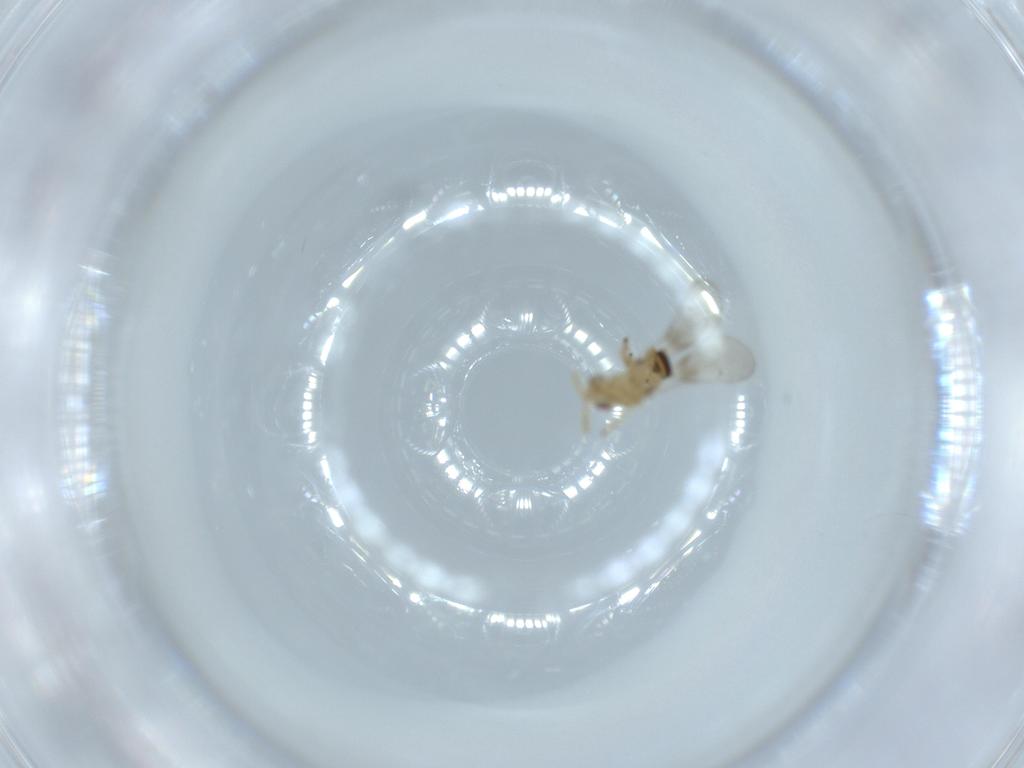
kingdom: Animalia
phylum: Arthropoda
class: Insecta
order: Hymenoptera
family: Torymidae
